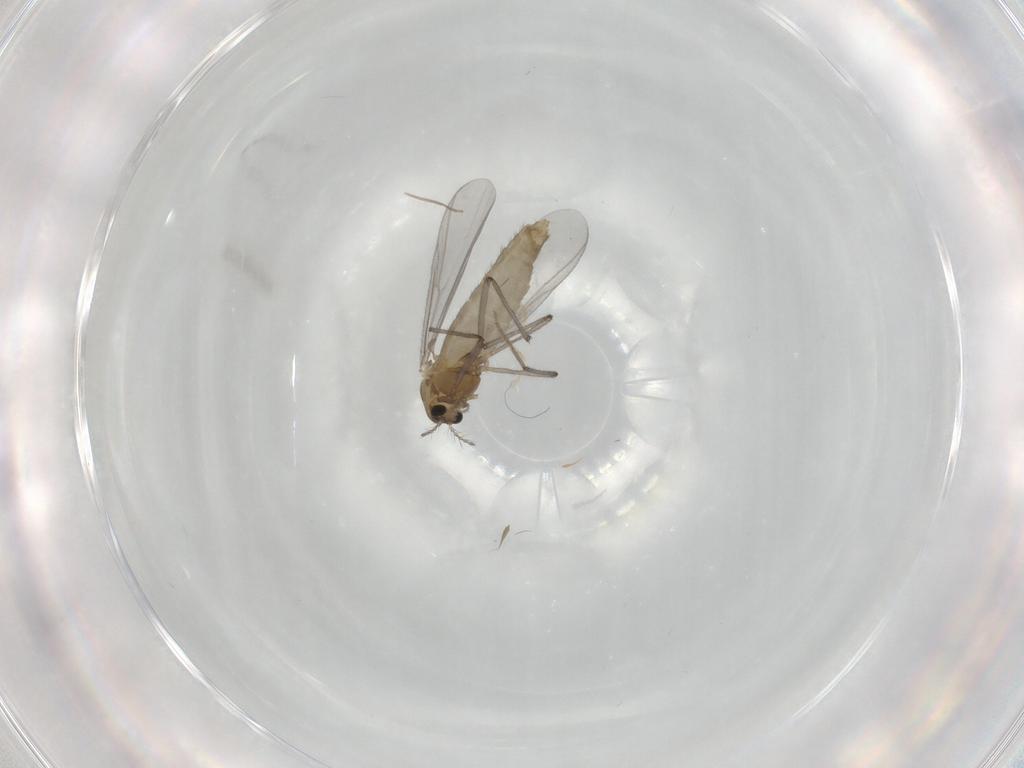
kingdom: Animalia
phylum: Arthropoda
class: Insecta
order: Diptera
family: Chironomidae
